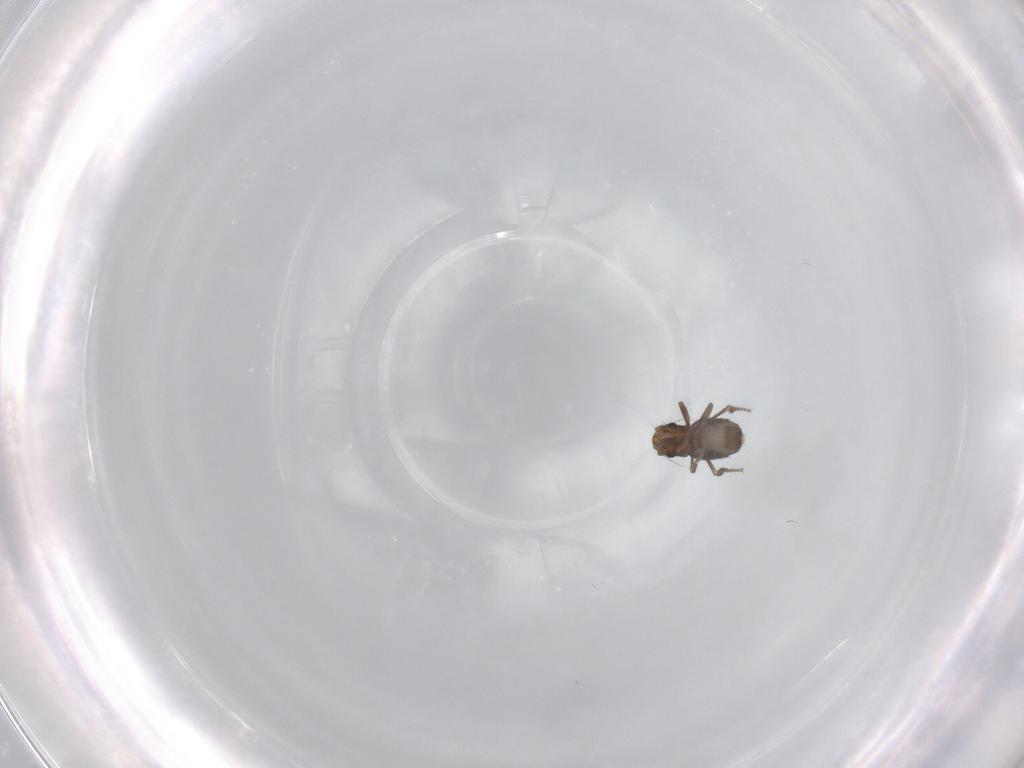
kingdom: Animalia
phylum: Arthropoda
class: Insecta
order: Diptera
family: Phoridae
